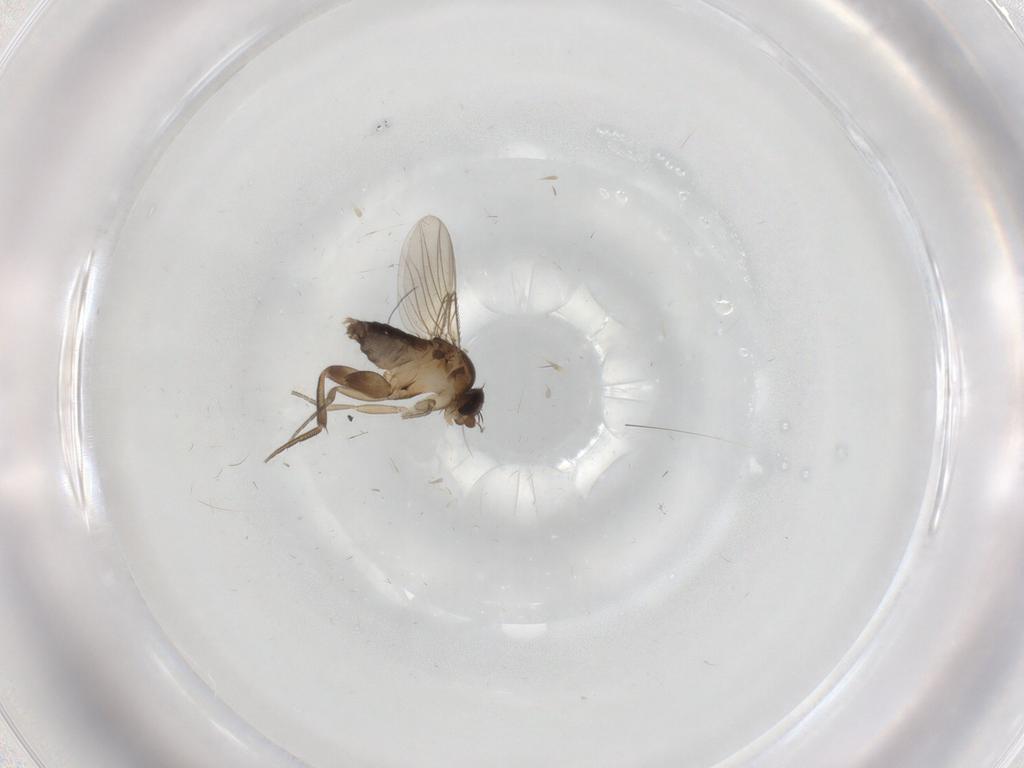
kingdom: Animalia
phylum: Arthropoda
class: Insecta
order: Diptera
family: Phoridae
